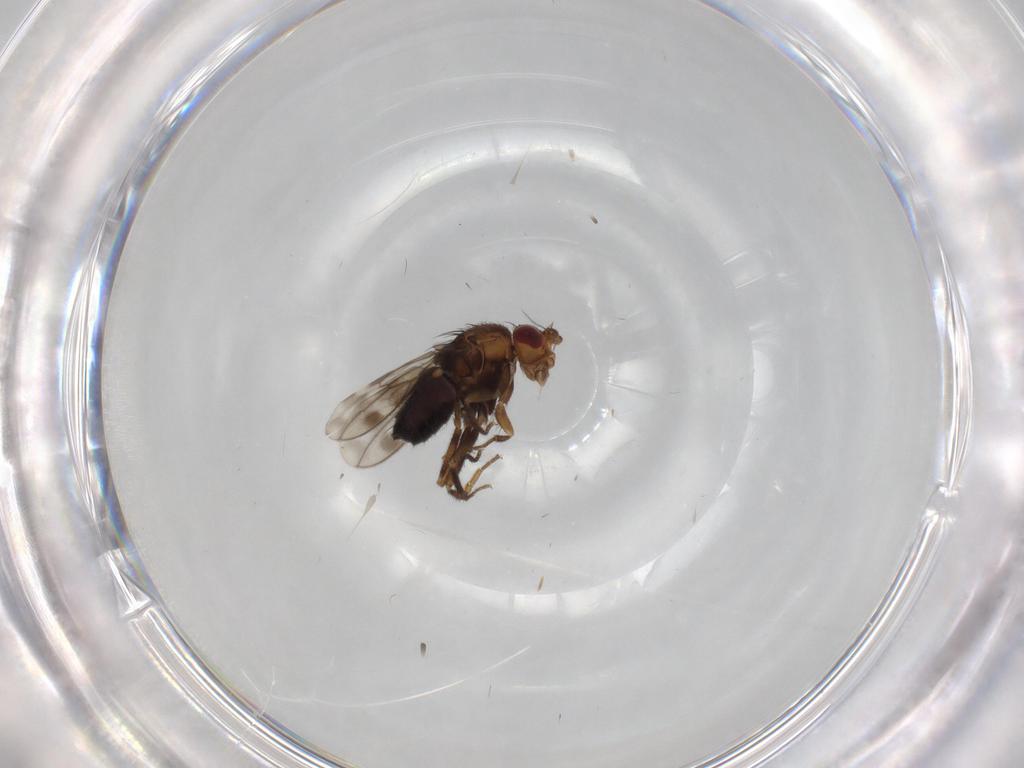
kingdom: Animalia
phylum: Arthropoda
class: Insecta
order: Diptera
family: Sphaeroceridae
